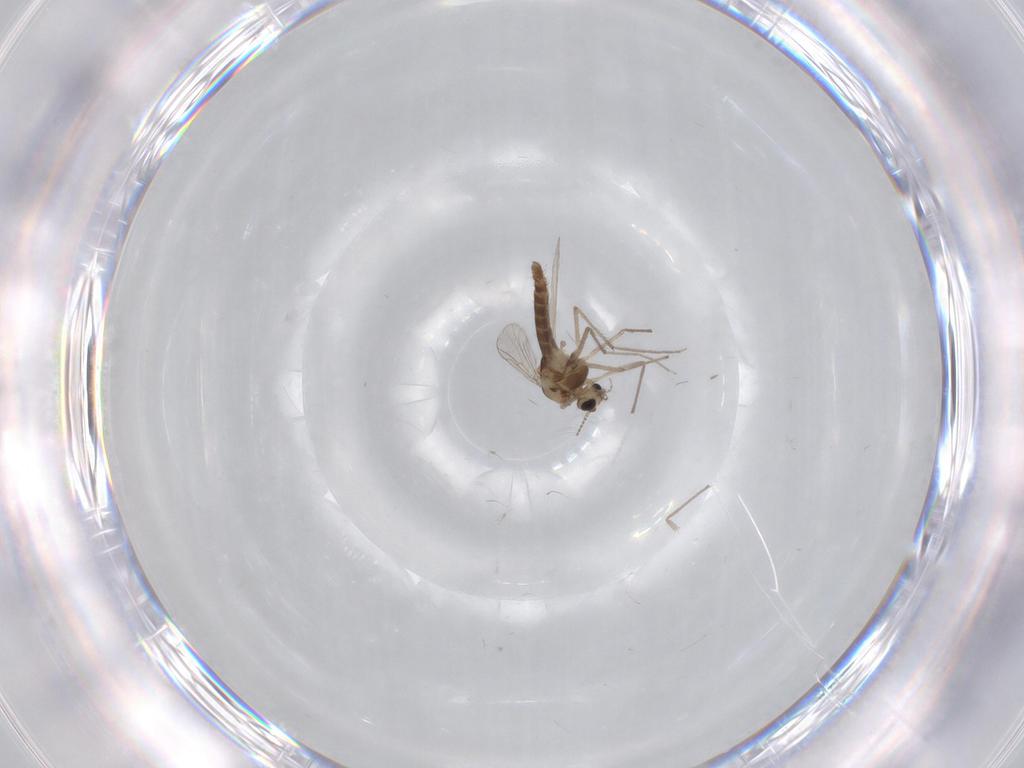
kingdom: Animalia
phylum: Arthropoda
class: Insecta
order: Diptera
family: Chironomidae
